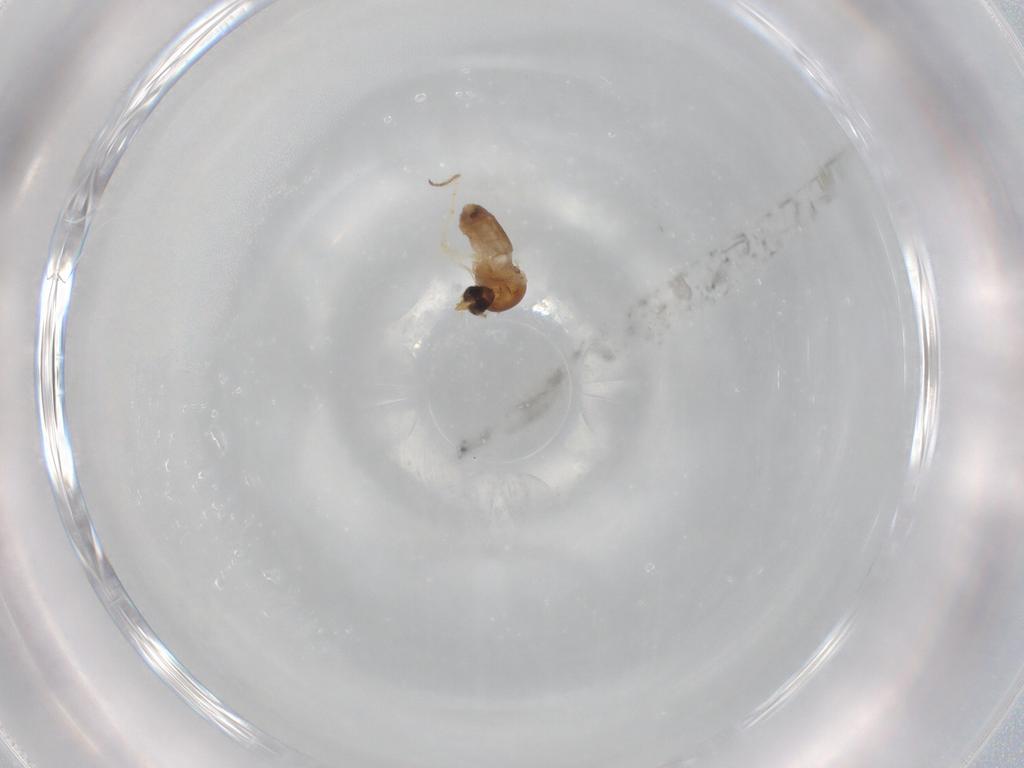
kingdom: Animalia
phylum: Arthropoda
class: Insecta
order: Diptera
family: Ceratopogonidae
